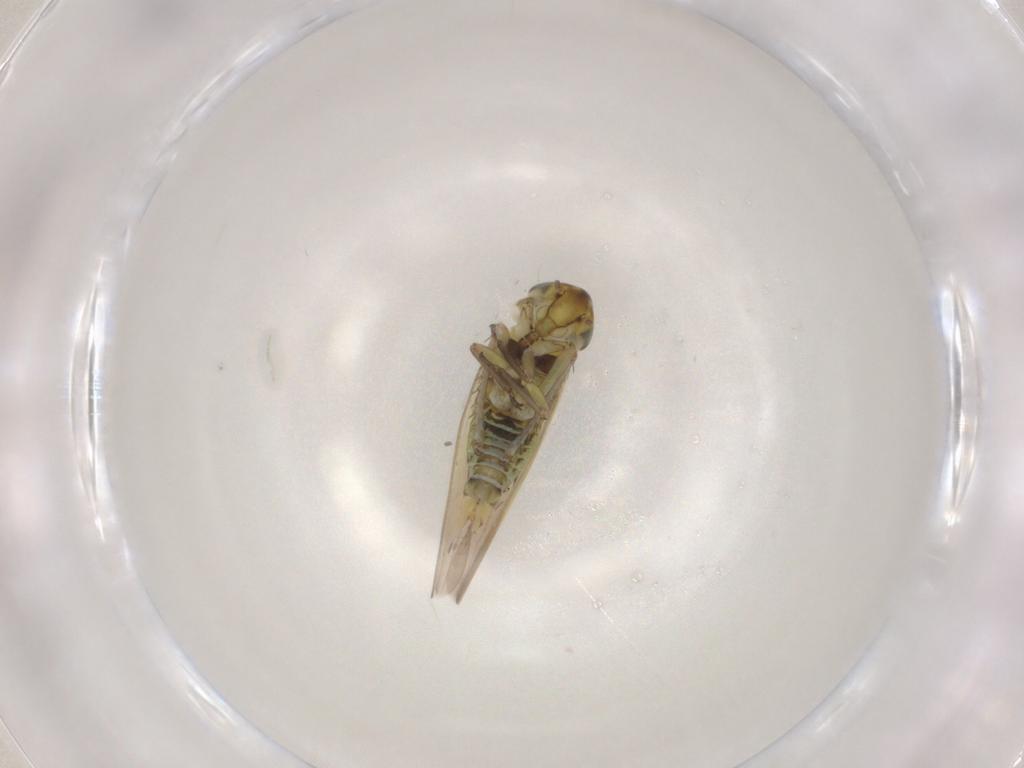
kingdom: Animalia
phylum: Arthropoda
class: Insecta
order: Hemiptera
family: Cicadellidae
